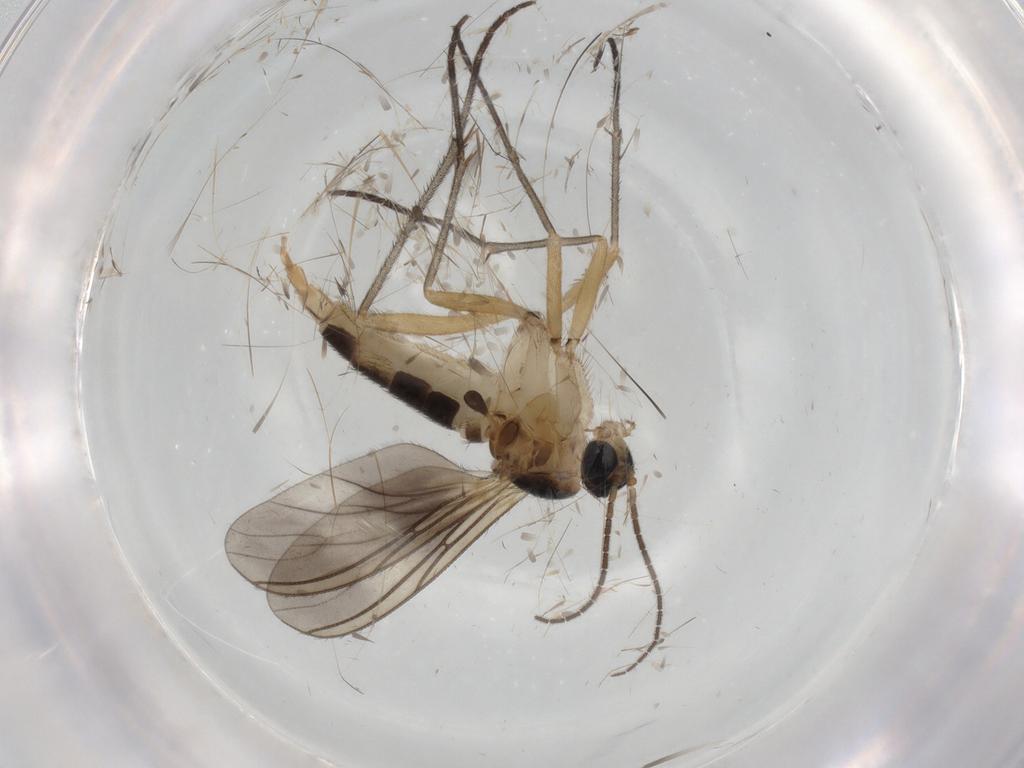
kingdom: Animalia
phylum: Arthropoda
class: Insecta
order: Diptera
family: Sciaridae
